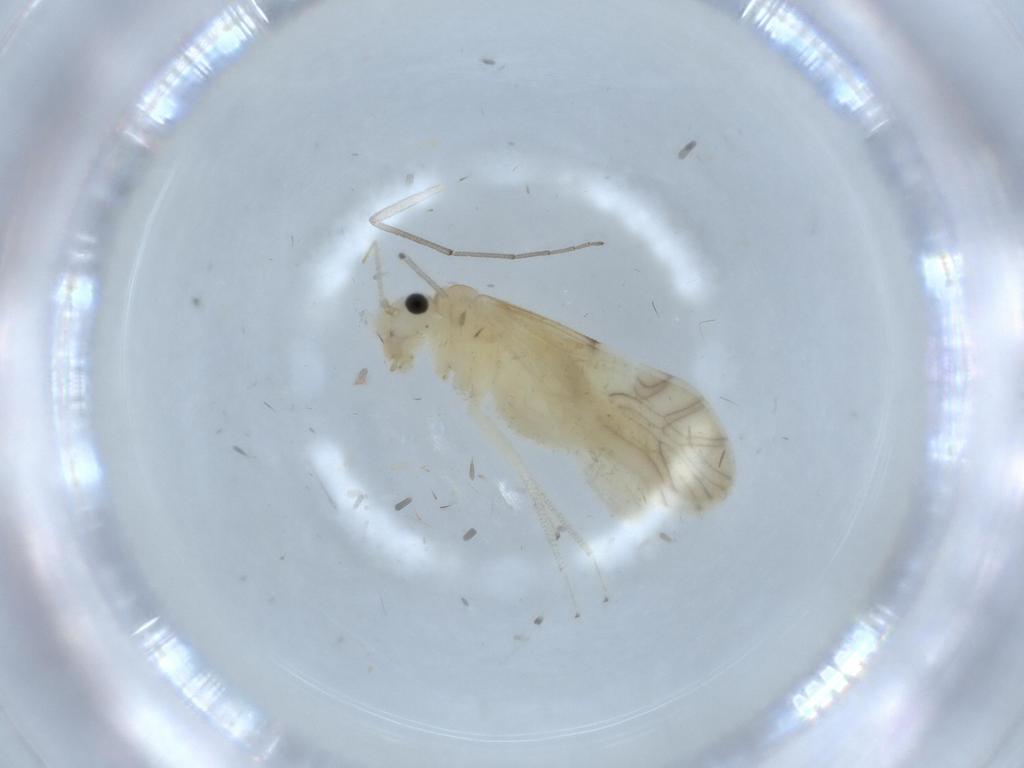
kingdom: Animalia
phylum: Arthropoda
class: Insecta
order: Psocodea
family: Caeciliusidae
